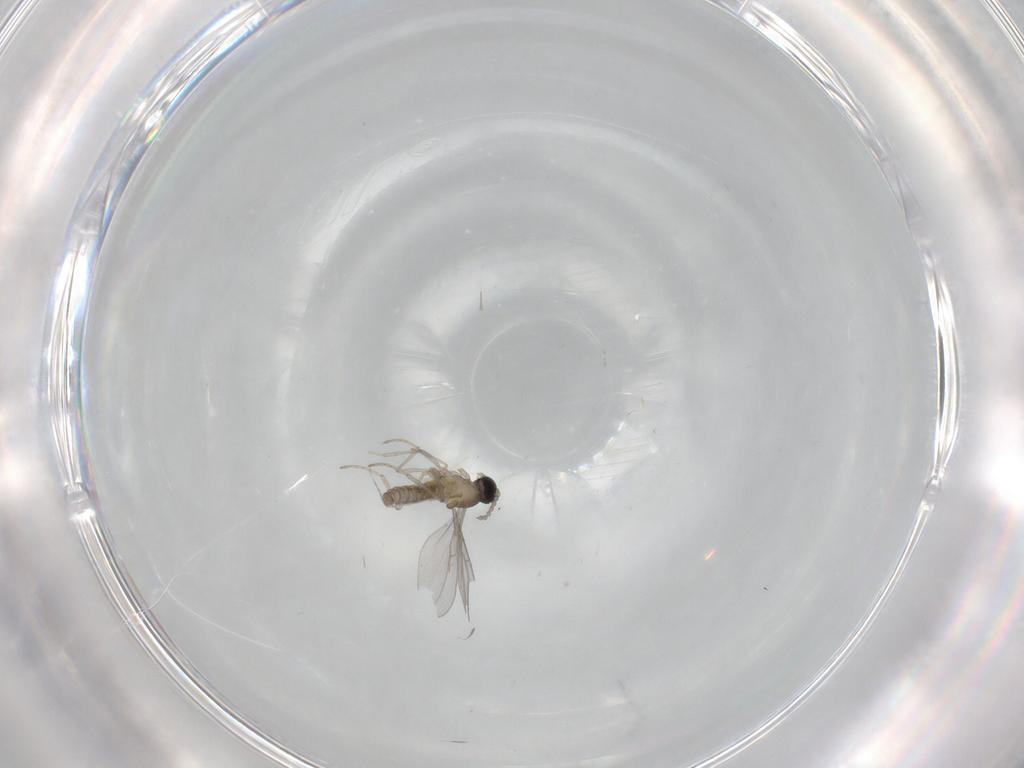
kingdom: Animalia
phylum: Arthropoda
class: Insecta
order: Diptera
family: Cecidomyiidae
